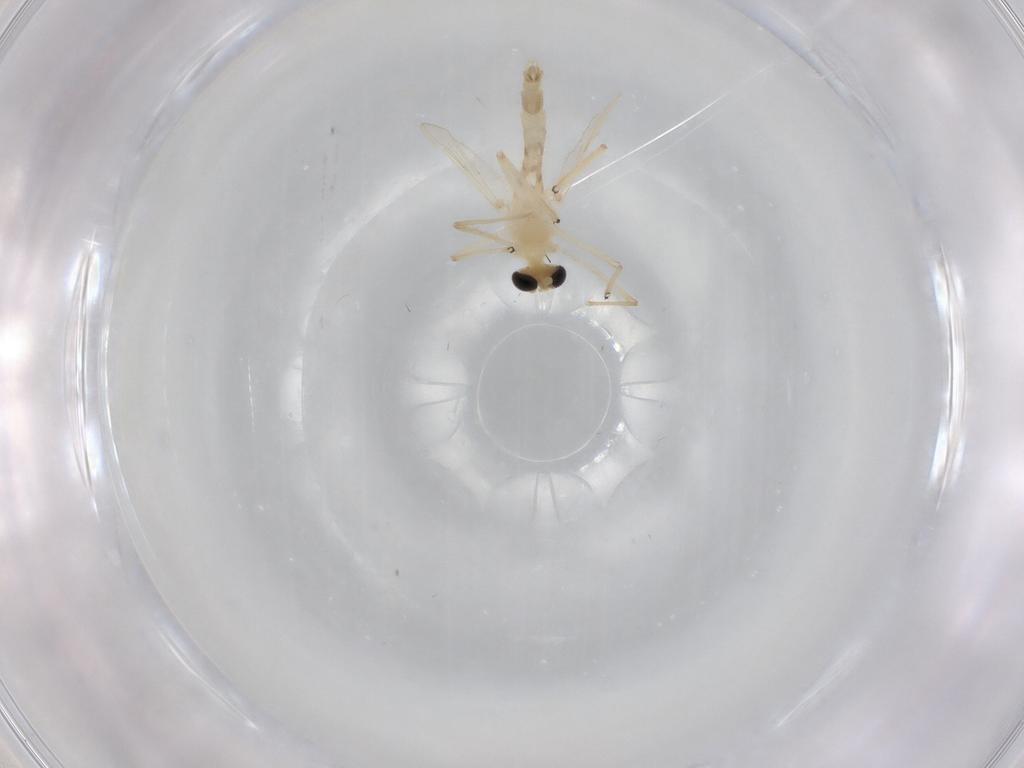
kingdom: Animalia
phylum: Arthropoda
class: Insecta
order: Diptera
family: Chironomidae
